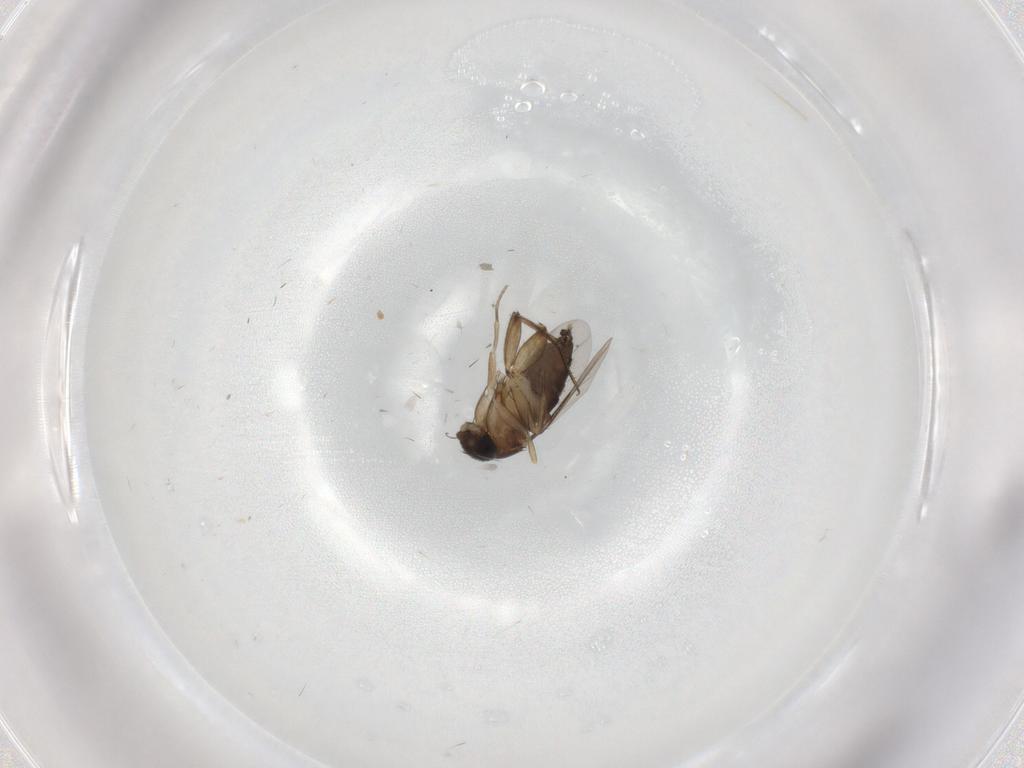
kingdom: Animalia
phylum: Arthropoda
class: Insecta
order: Diptera
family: Phoridae
